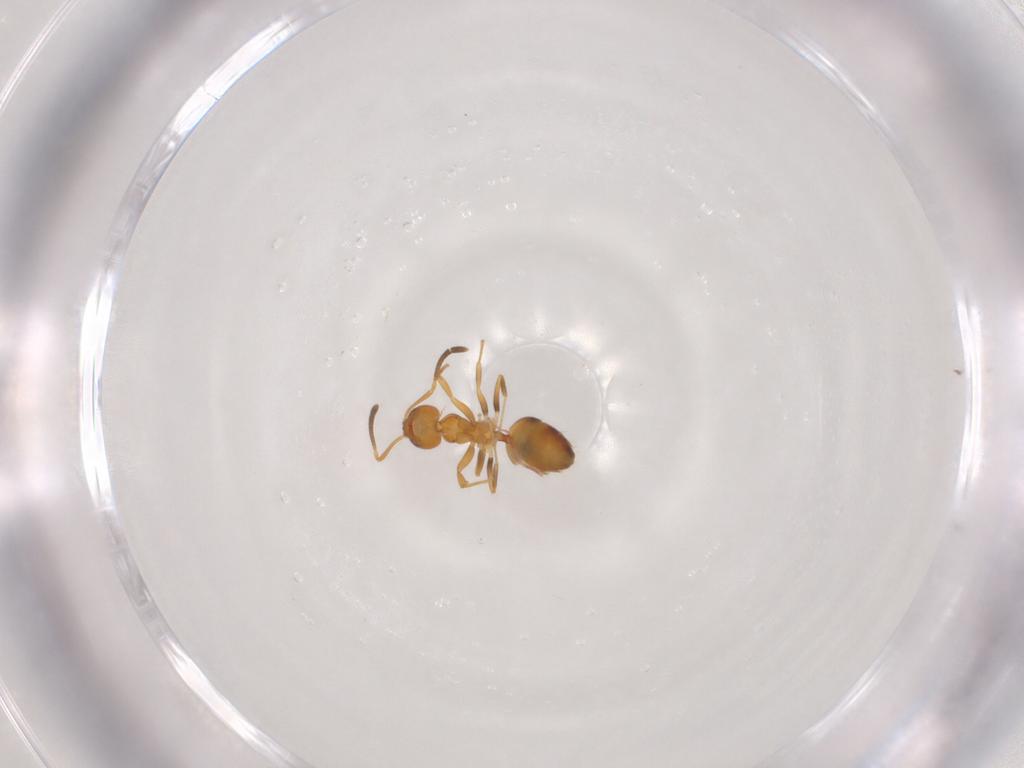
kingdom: Animalia
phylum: Arthropoda
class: Insecta
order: Hymenoptera
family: Formicidae
